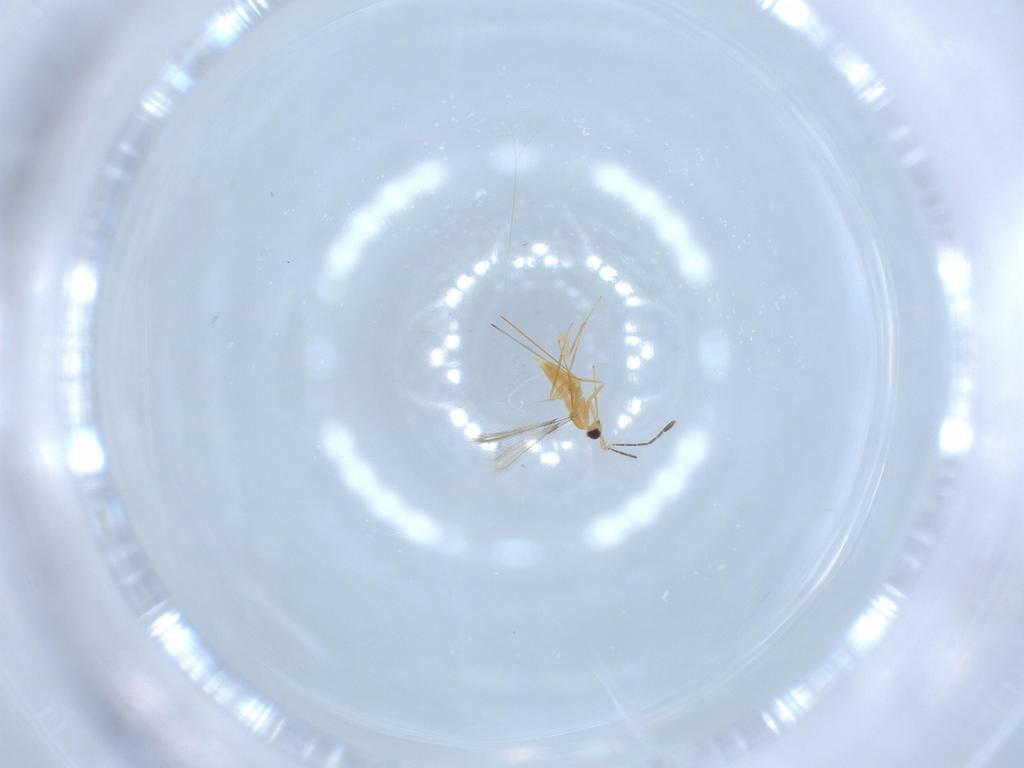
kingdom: Animalia
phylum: Arthropoda
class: Insecta
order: Hymenoptera
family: Mymaridae
